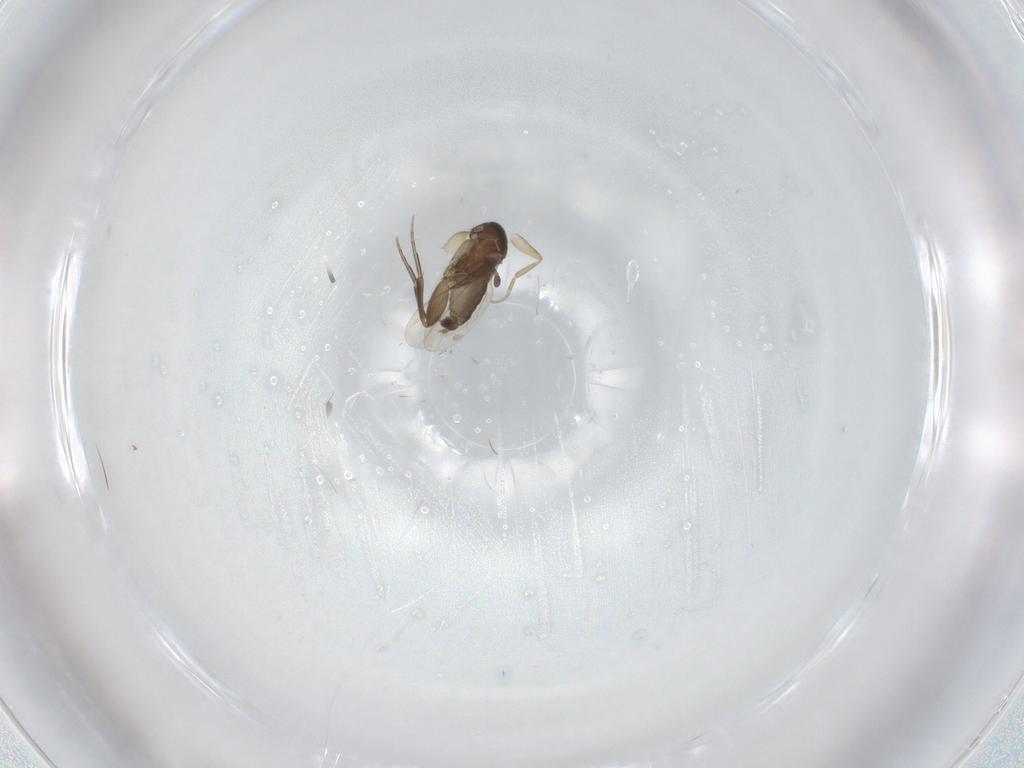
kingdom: Animalia
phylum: Arthropoda
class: Insecta
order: Diptera
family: Phoridae
